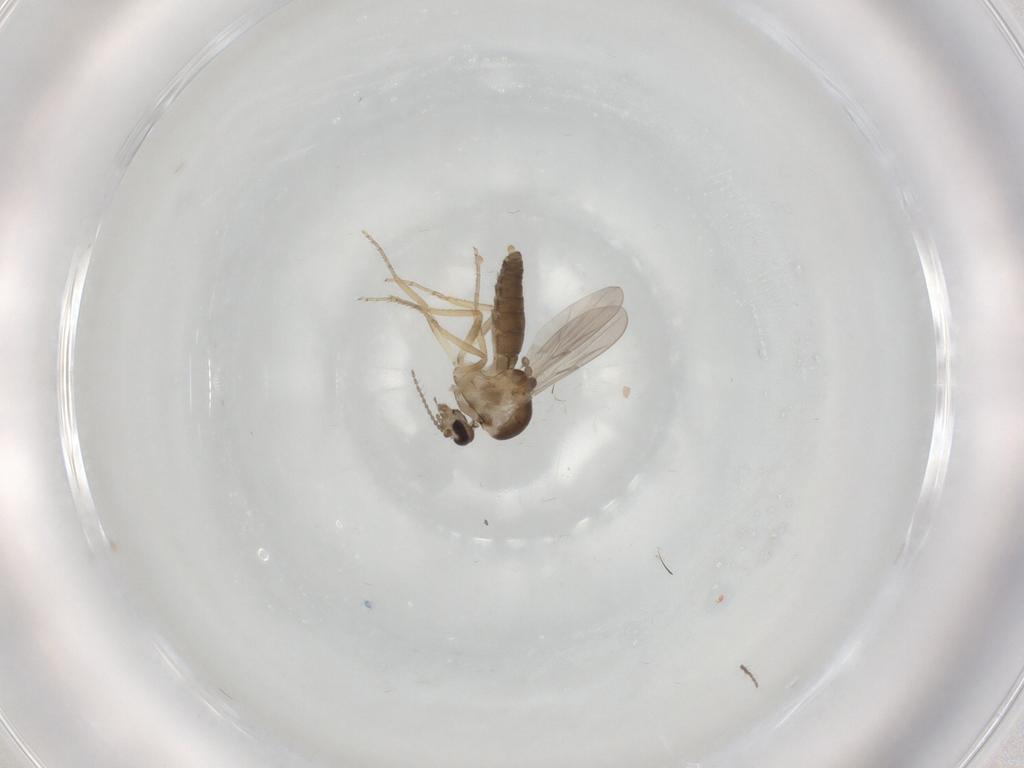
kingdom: Animalia
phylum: Arthropoda
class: Insecta
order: Diptera
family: Ceratopogonidae
